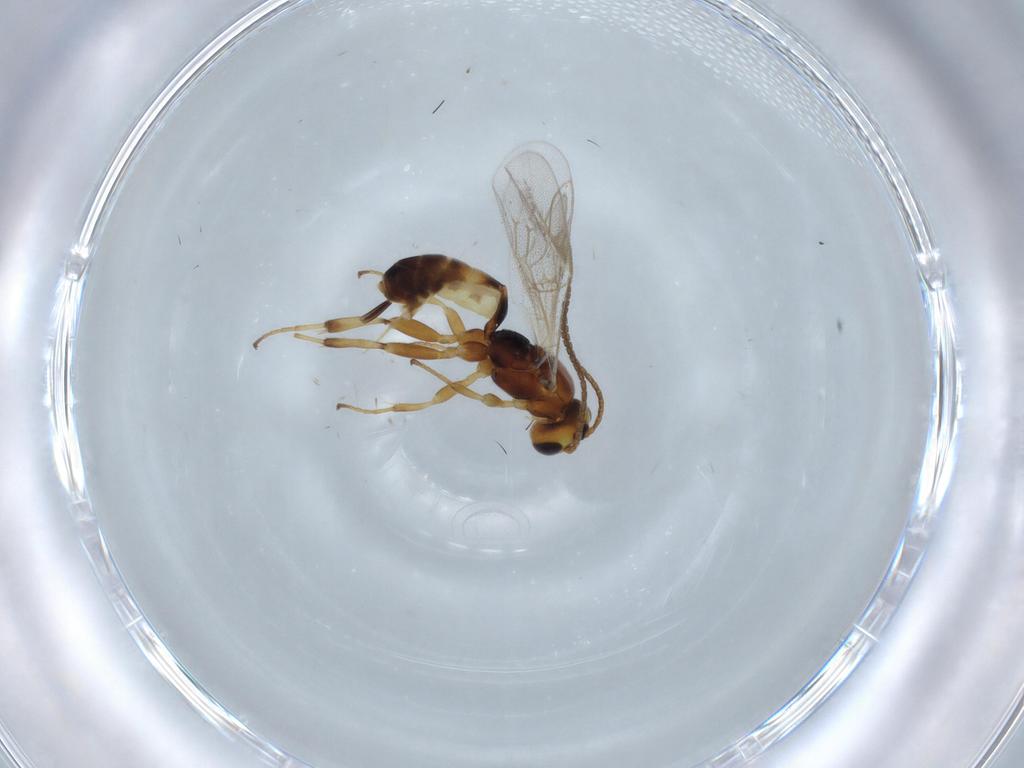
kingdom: Animalia
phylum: Arthropoda
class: Insecta
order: Hymenoptera
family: Ichneumonidae
